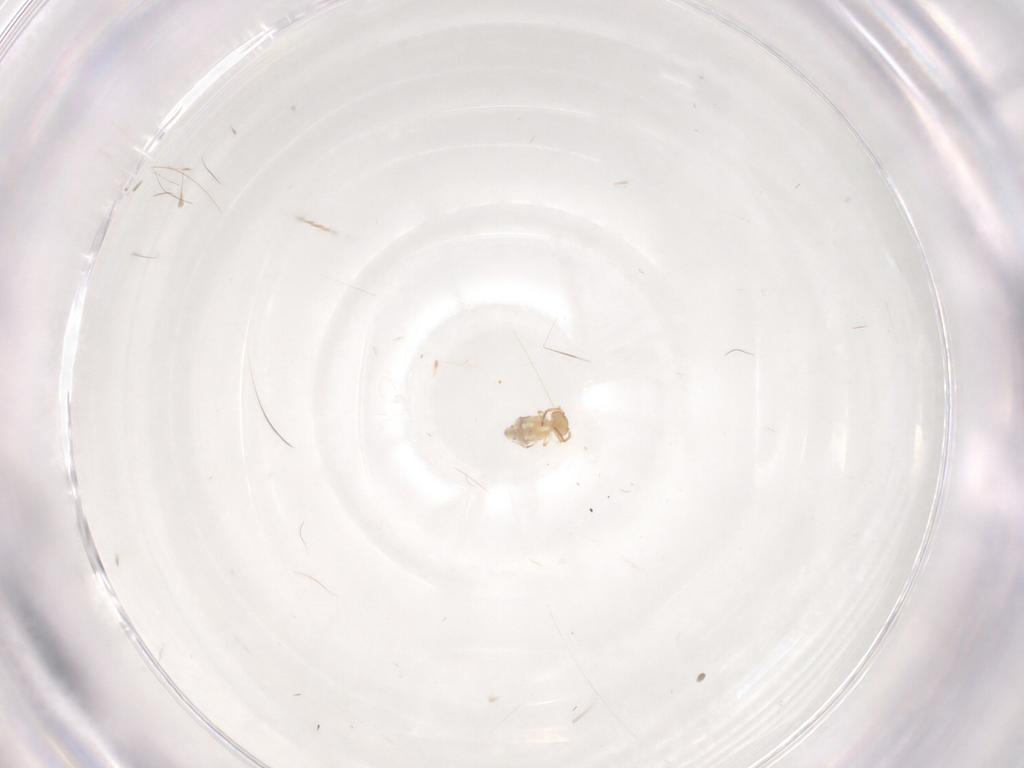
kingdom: Animalia
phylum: Arthropoda
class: Collembola
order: Symphypleona
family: Bourletiellidae
